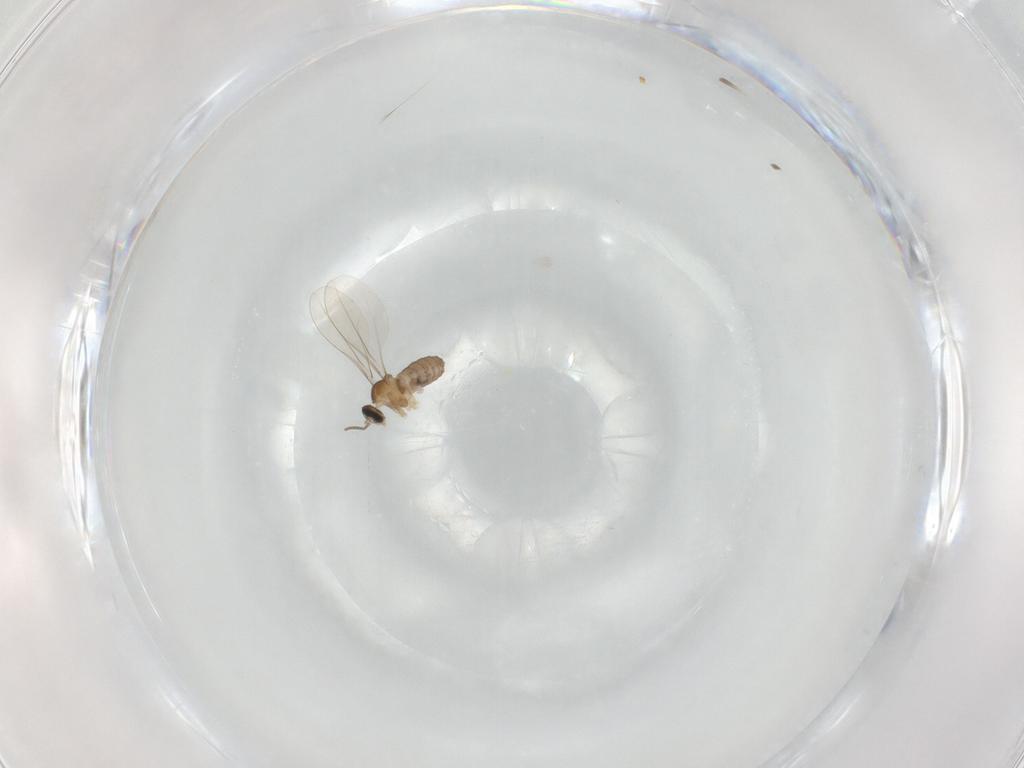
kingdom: Animalia
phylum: Arthropoda
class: Insecta
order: Diptera
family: Cecidomyiidae
